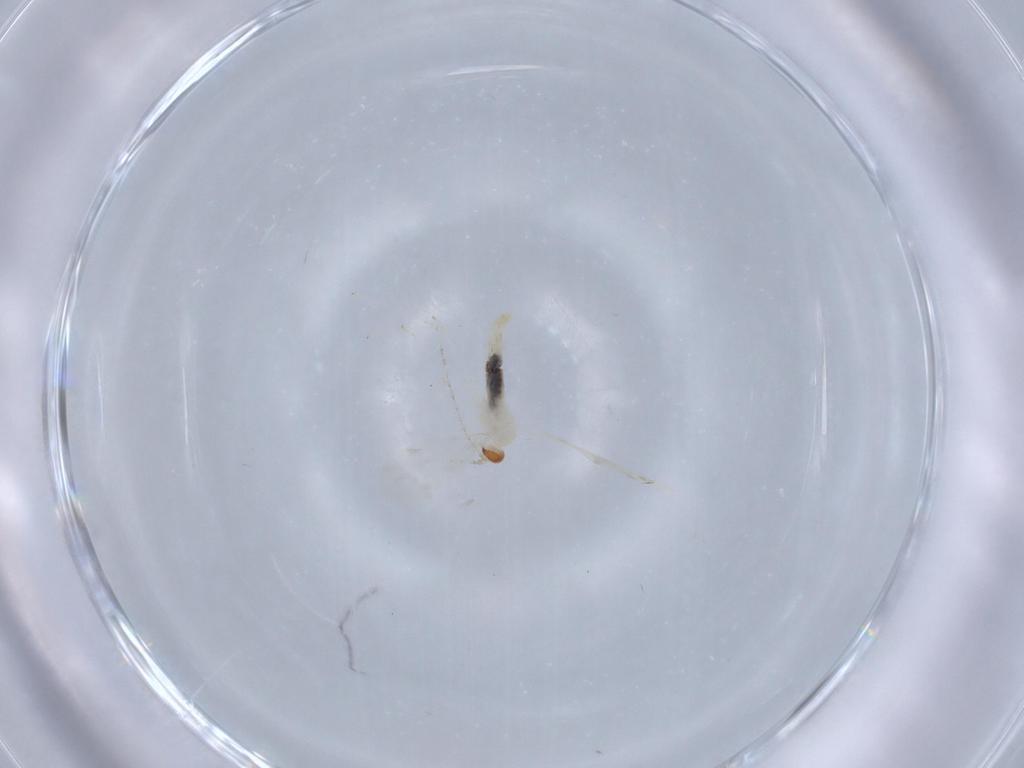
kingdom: Animalia
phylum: Arthropoda
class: Insecta
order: Diptera
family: Cecidomyiidae
